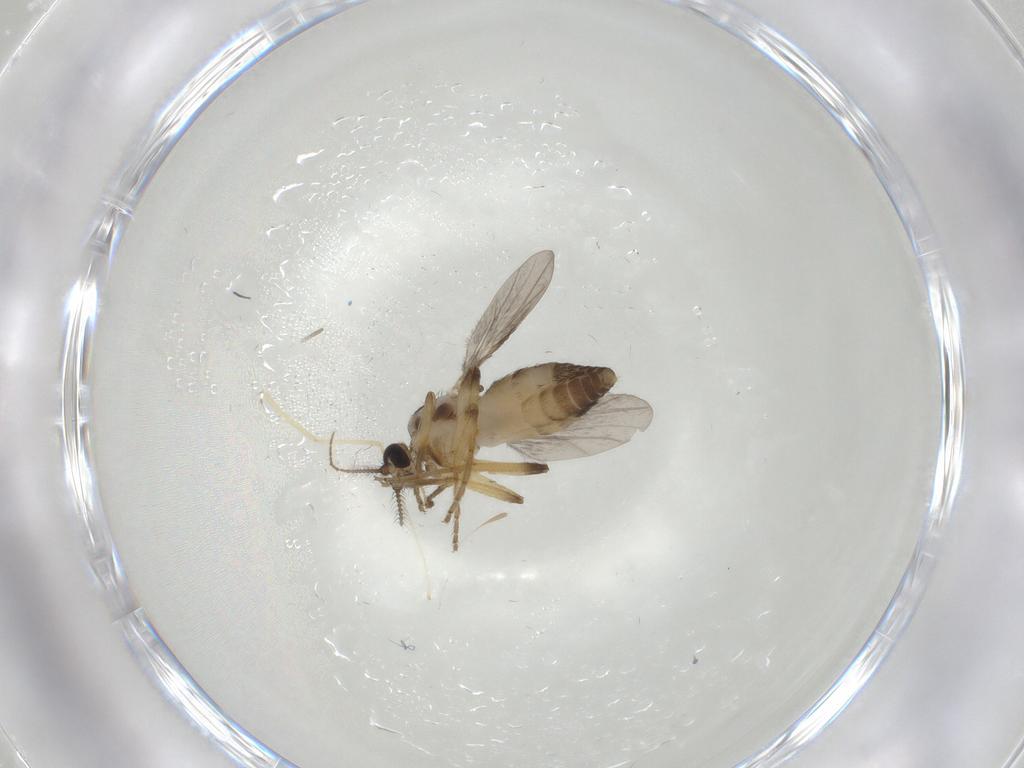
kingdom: Animalia
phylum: Arthropoda
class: Insecta
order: Diptera
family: Ceratopogonidae
